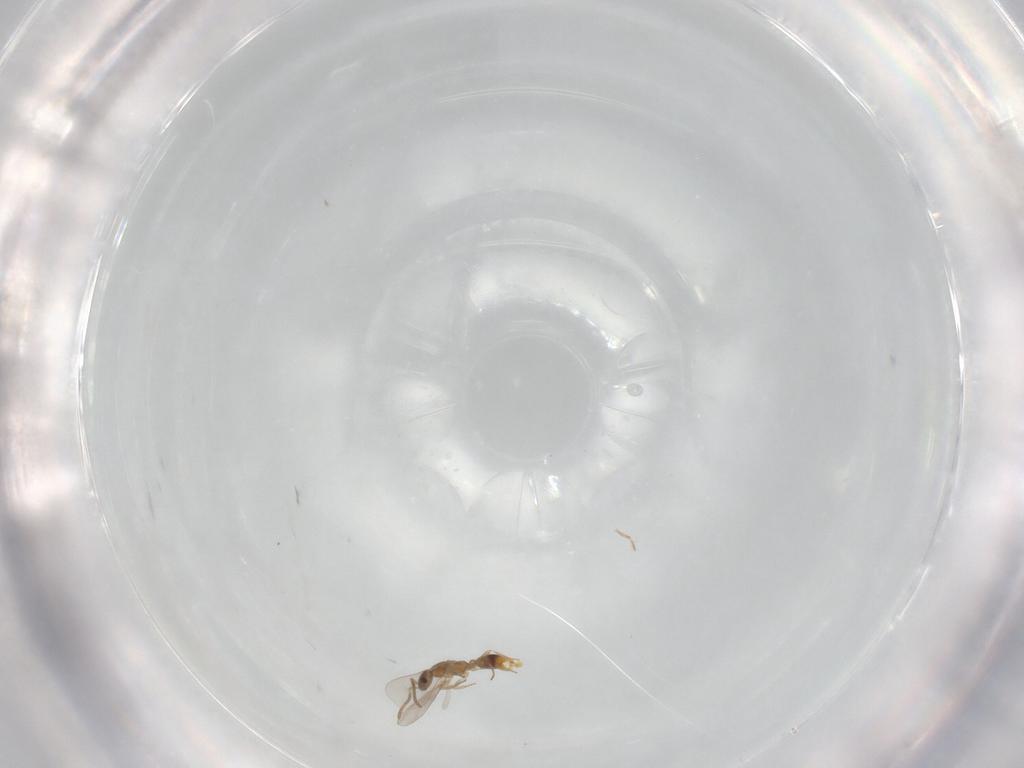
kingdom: Animalia
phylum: Arthropoda
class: Insecta
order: Hymenoptera
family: Formicidae
